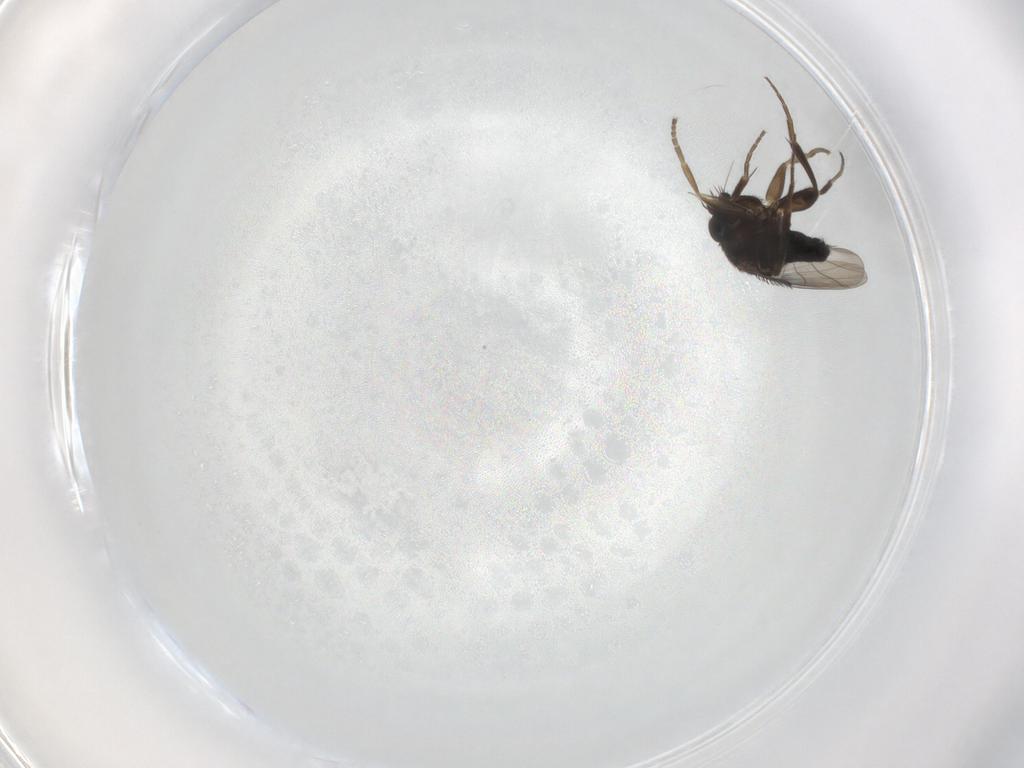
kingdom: Animalia
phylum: Arthropoda
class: Insecta
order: Diptera
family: Phoridae
